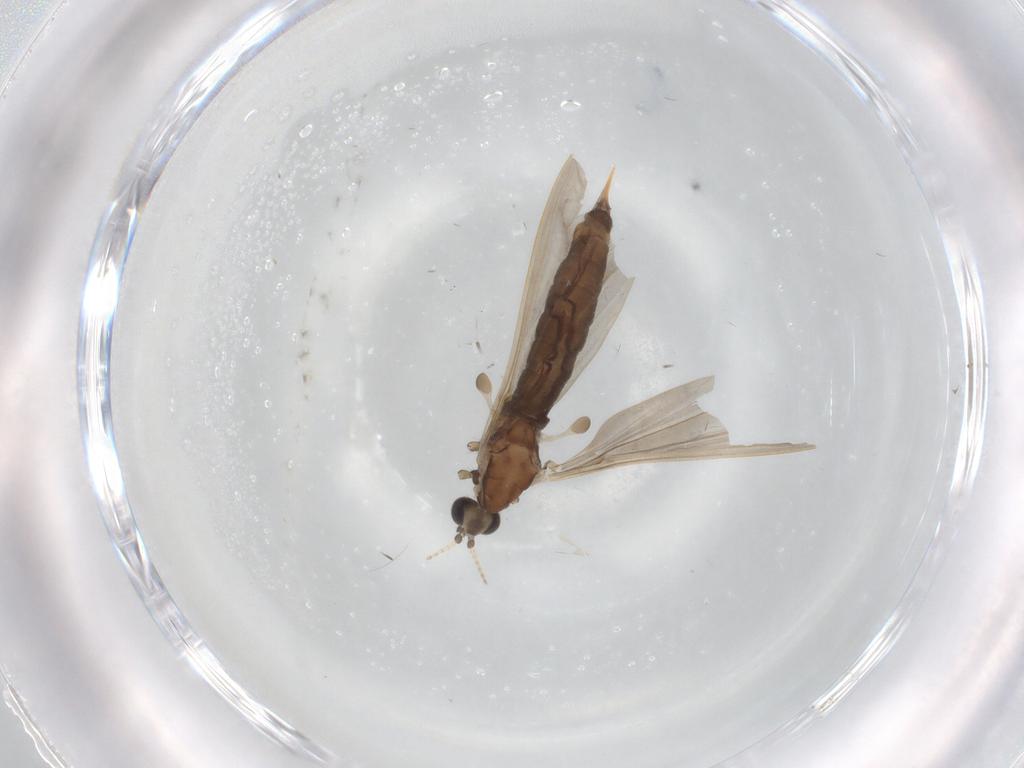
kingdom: Animalia
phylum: Arthropoda
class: Insecta
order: Diptera
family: Limoniidae
